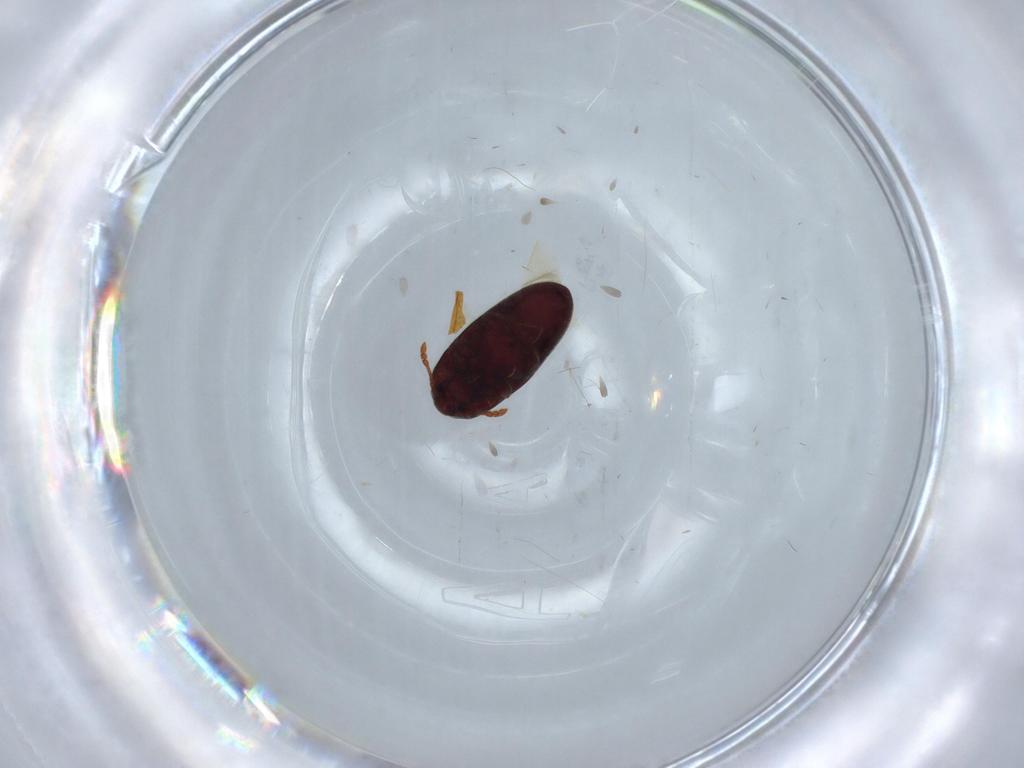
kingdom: Animalia
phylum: Arthropoda
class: Insecta
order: Coleoptera
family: Throscidae
